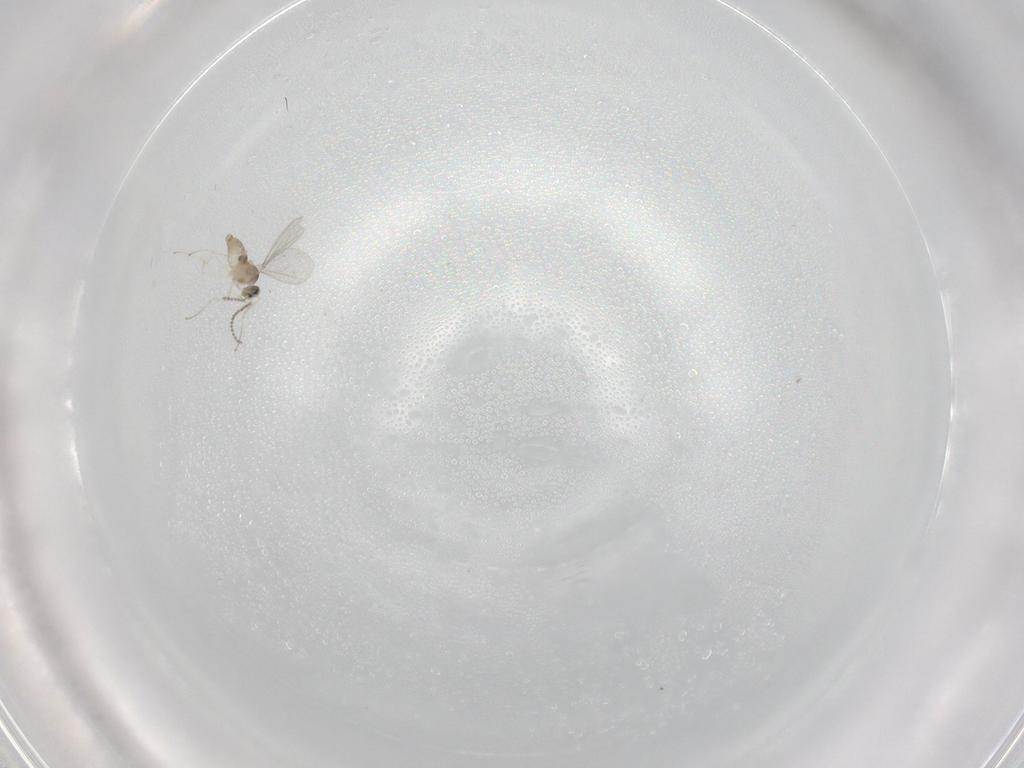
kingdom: Animalia
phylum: Arthropoda
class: Insecta
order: Diptera
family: Cecidomyiidae
